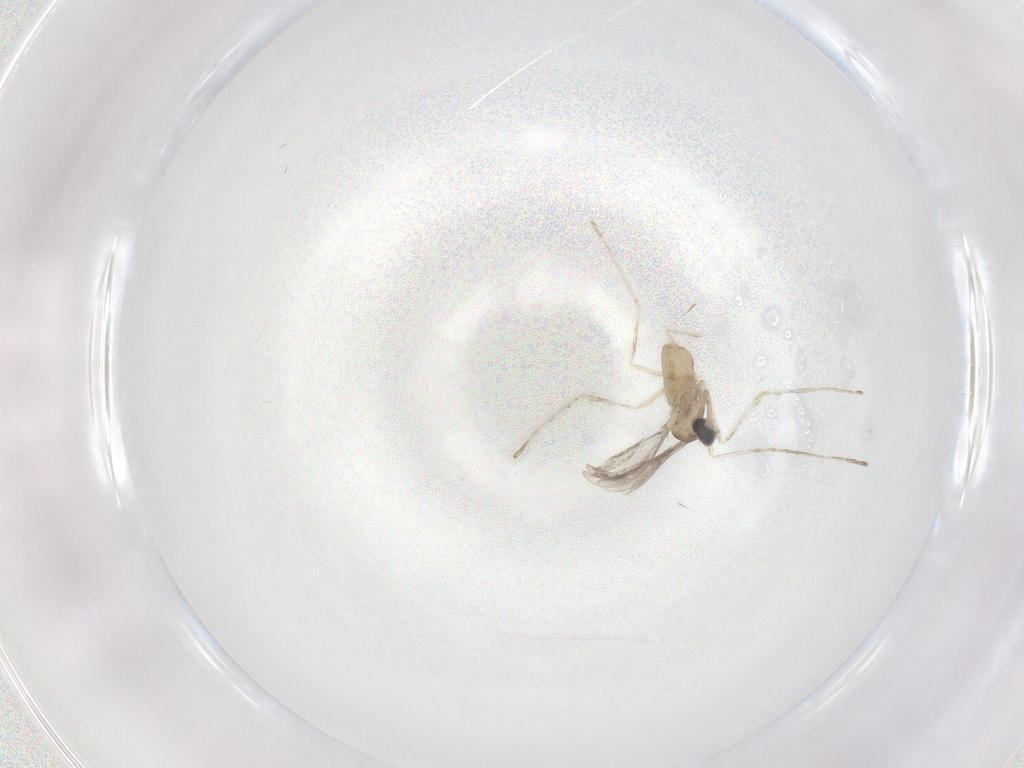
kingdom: Animalia
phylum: Arthropoda
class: Insecta
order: Diptera
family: Cecidomyiidae
